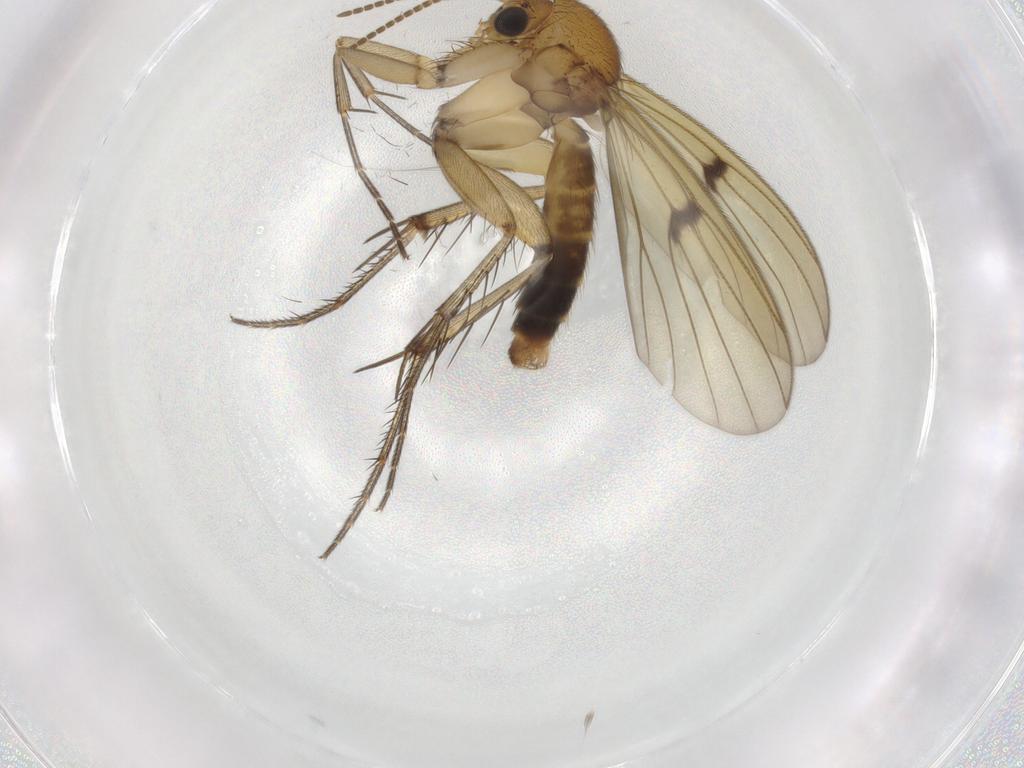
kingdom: Animalia
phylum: Arthropoda
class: Insecta
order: Diptera
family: Mycetophilidae
